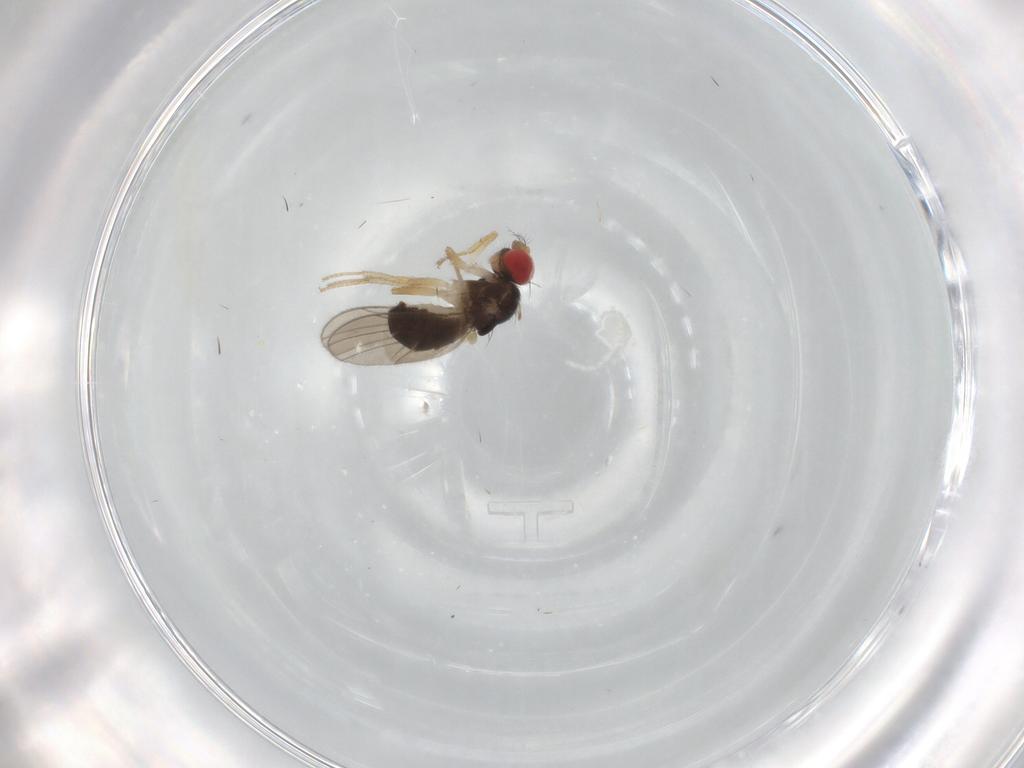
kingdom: Animalia
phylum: Arthropoda
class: Insecta
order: Diptera
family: Drosophilidae
